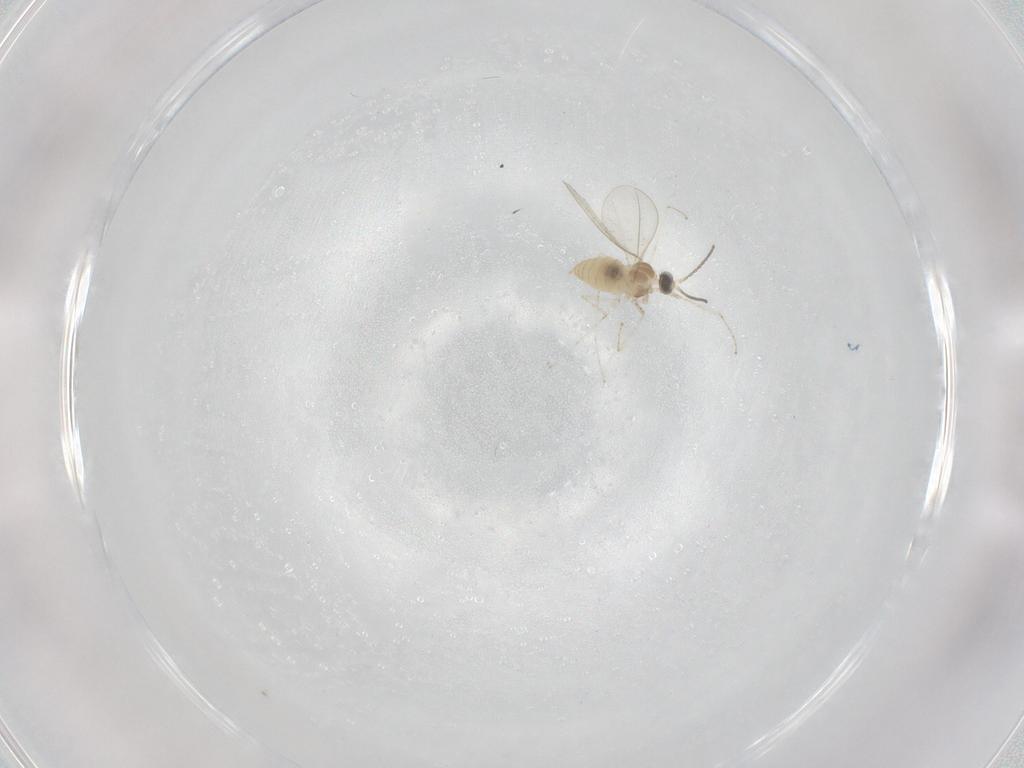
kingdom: Animalia
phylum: Arthropoda
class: Insecta
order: Diptera
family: Cecidomyiidae
